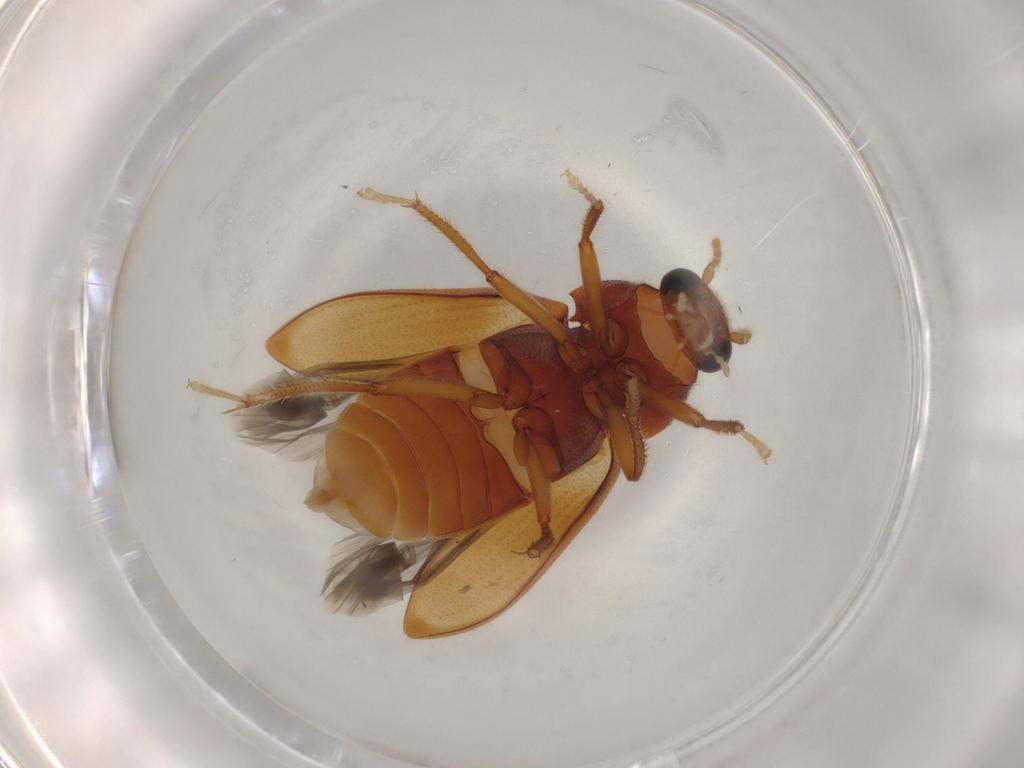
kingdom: Animalia
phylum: Arthropoda
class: Insecta
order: Coleoptera
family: Ptilodactylidae
